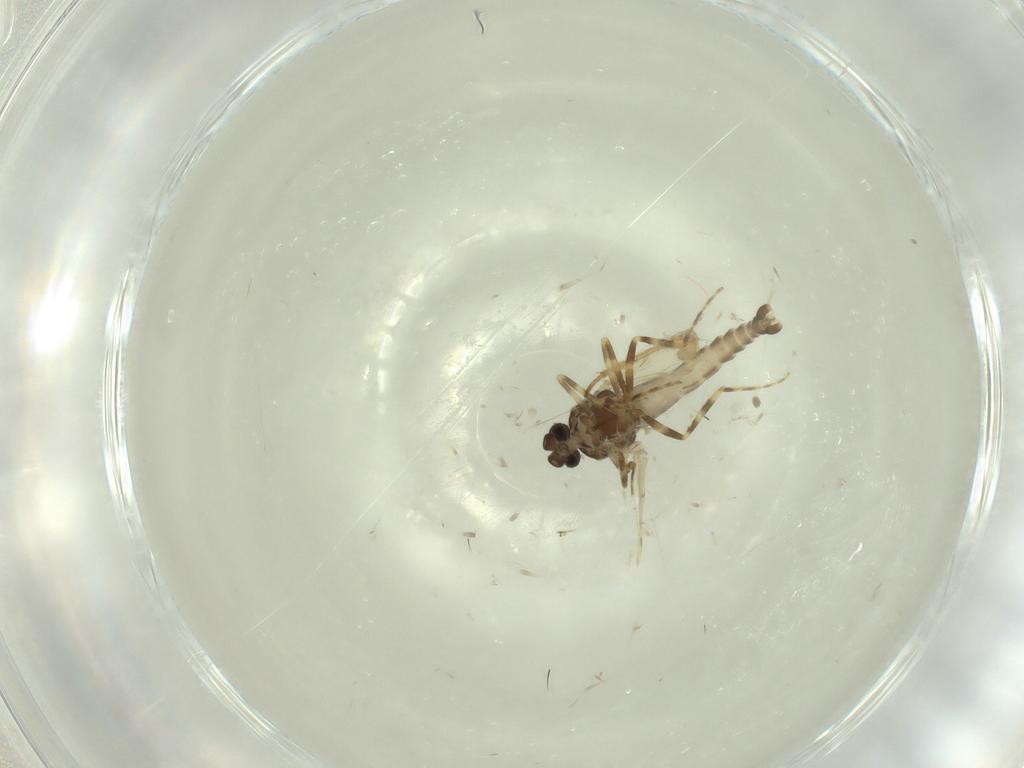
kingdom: Animalia
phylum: Arthropoda
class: Insecta
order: Diptera
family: Ceratopogonidae
